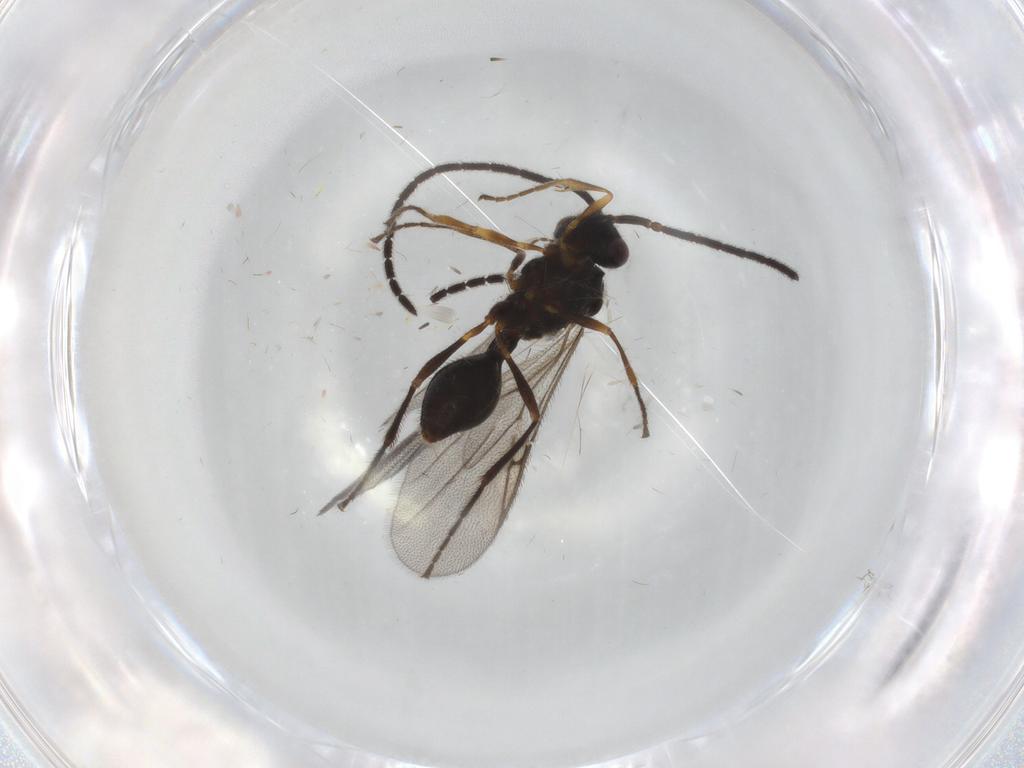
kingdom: Animalia
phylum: Arthropoda
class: Insecta
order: Hymenoptera
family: Diapriidae
